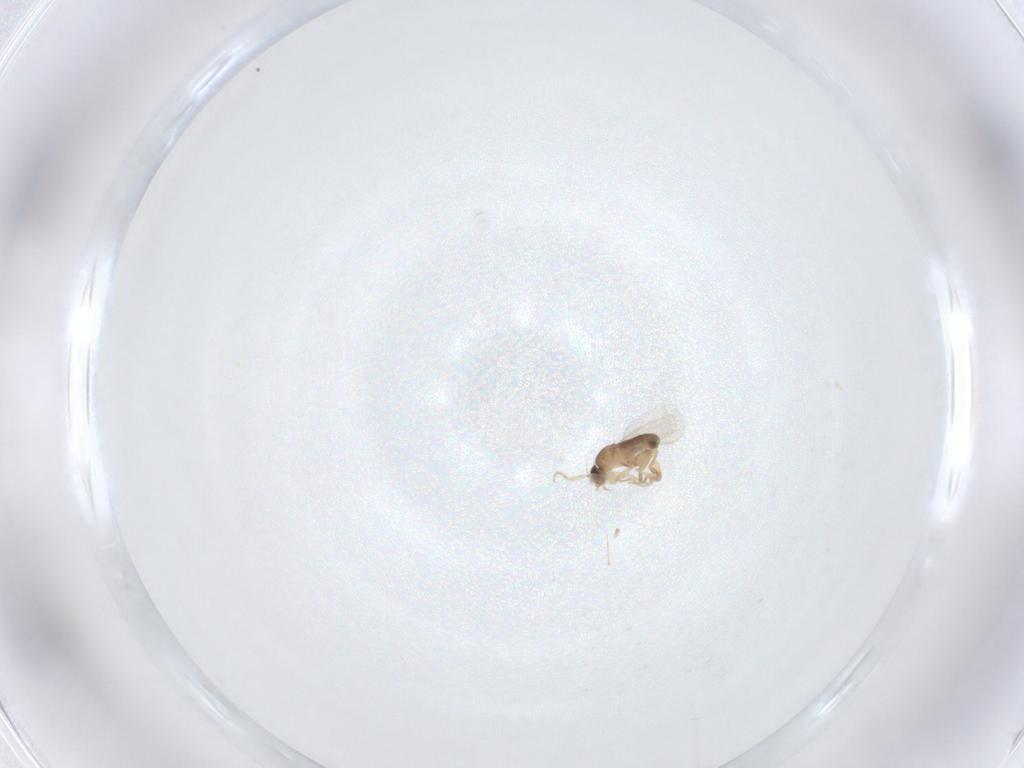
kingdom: Animalia
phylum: Arthropoda
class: Insecta
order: Diptera
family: Phoridae
